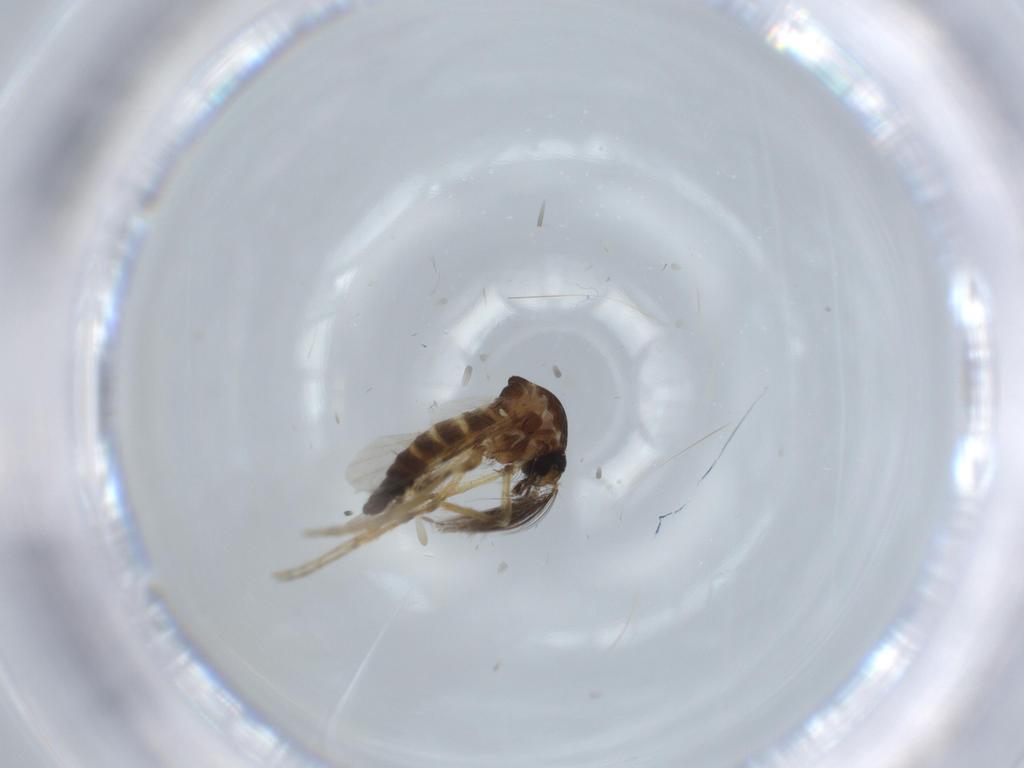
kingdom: Animalia
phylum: Arthropoda
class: Insecta
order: Diptera
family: Ceratopogonidae
